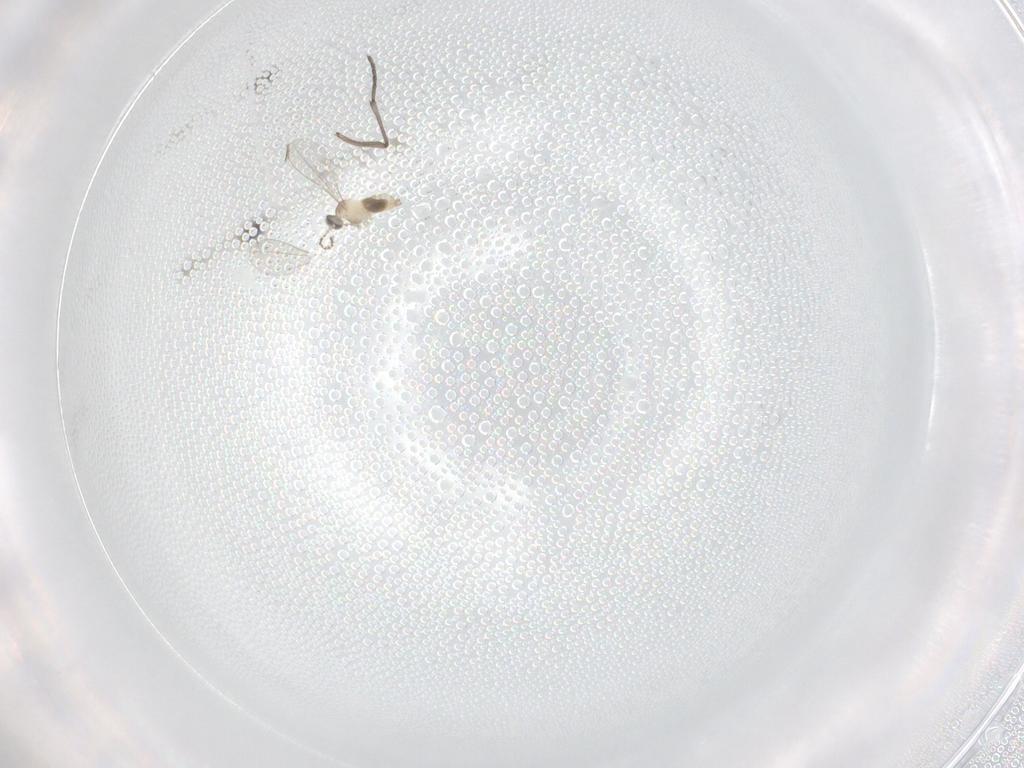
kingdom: Animalia
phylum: Arthropoda
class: Insecta
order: Diptera
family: Cecidomyiidae
